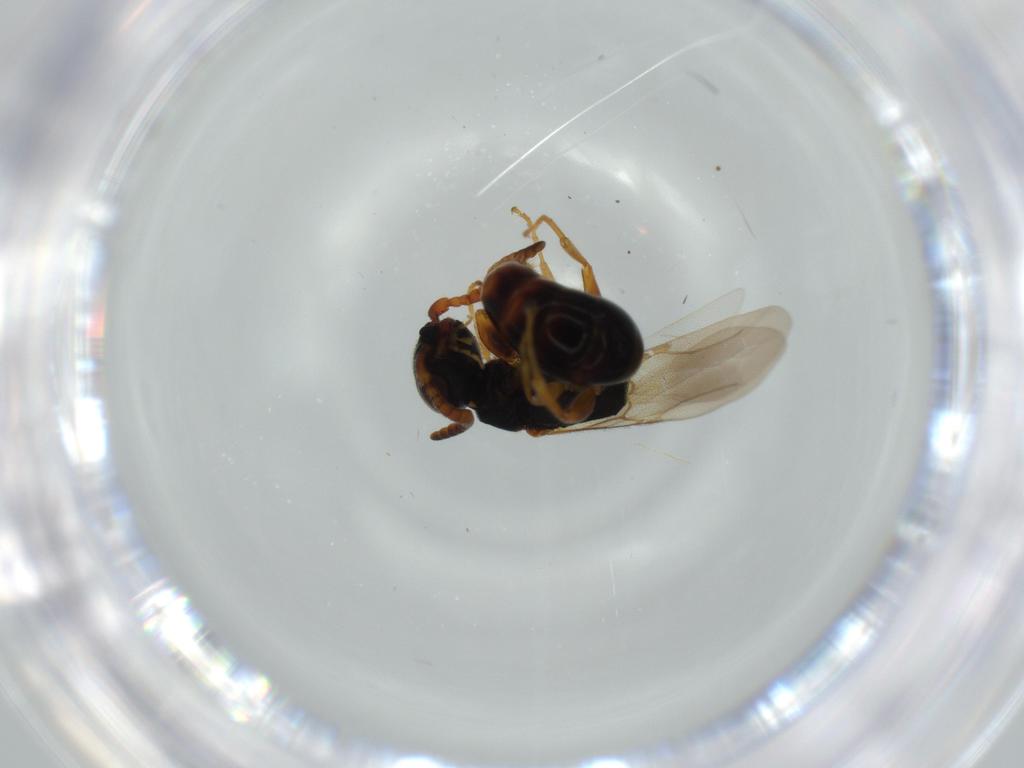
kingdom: Animalia
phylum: Arthropoda
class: Insecta
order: Hymenoptera
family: Bethylidae
